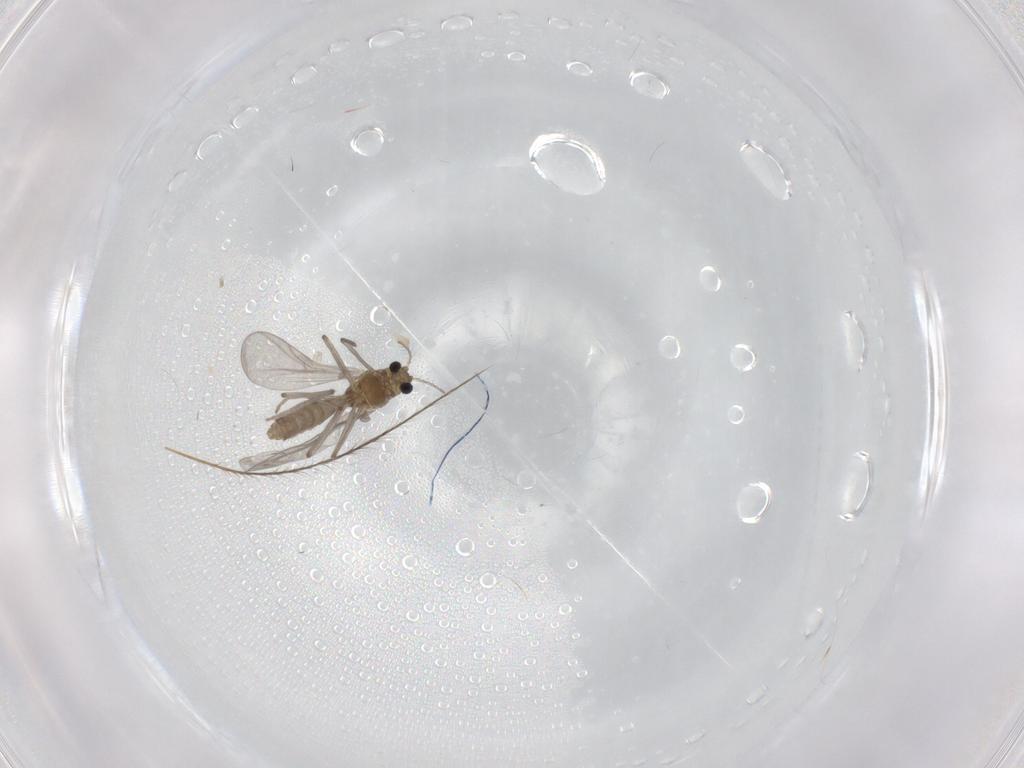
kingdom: Animalia
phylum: Arthropoda
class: Insecta
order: Diptera
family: Chironomidae
